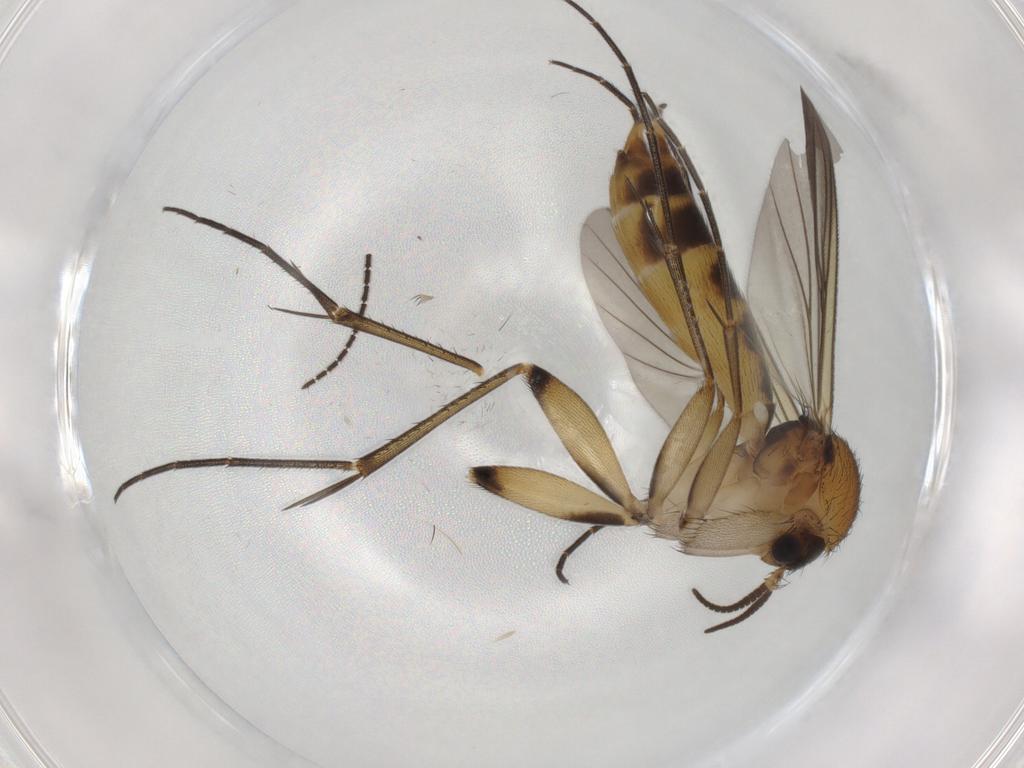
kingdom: Animalia
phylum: Arthropoda
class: Insecta
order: Diptera
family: Mycetophilidae
